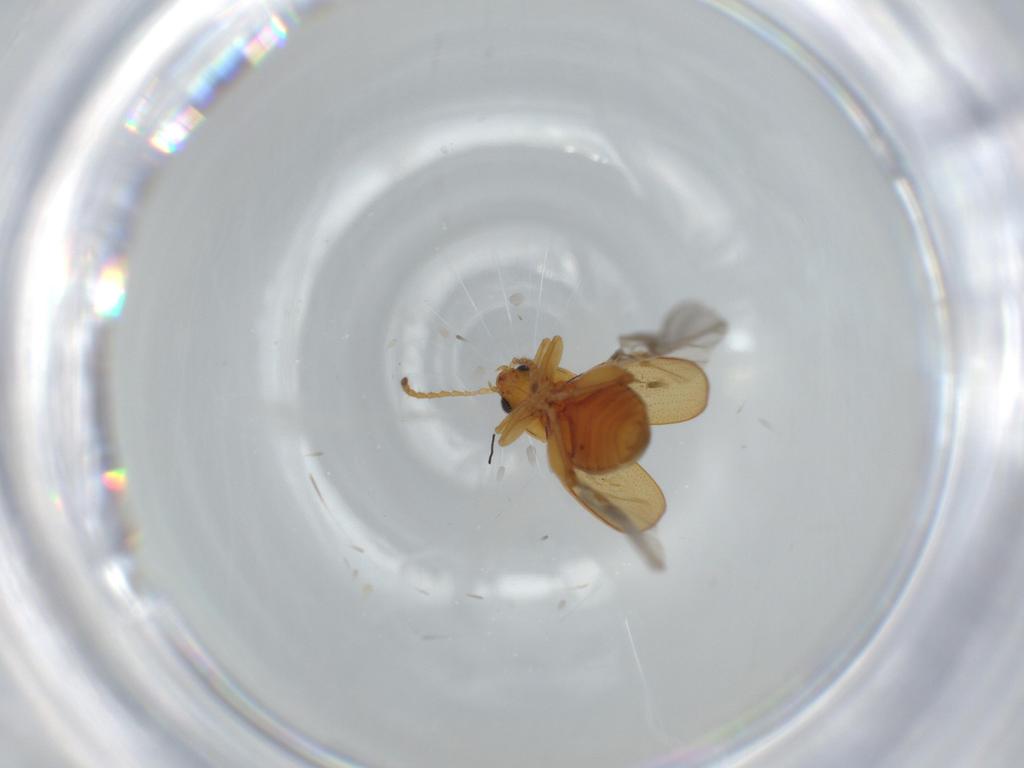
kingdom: Animalia
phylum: Arthropoda
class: Insecta
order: Coleoptera
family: Chrysomelidae
